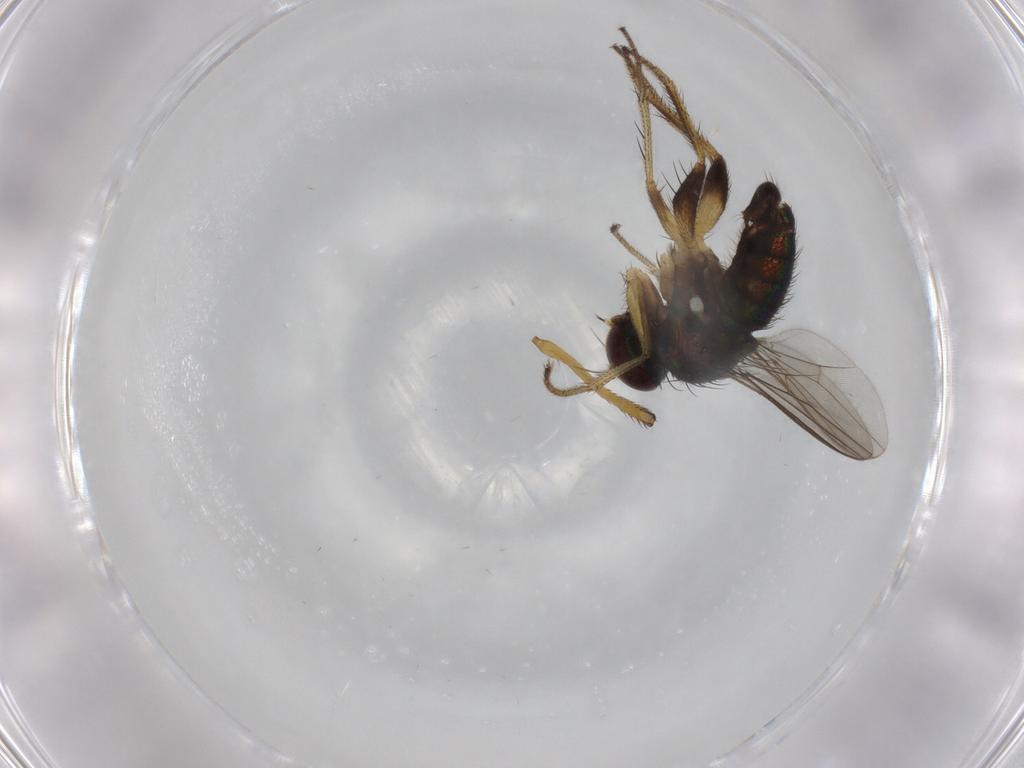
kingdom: Animalia
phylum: Arthropoda
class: Insecta
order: Diptera
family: Dolichopodidae
